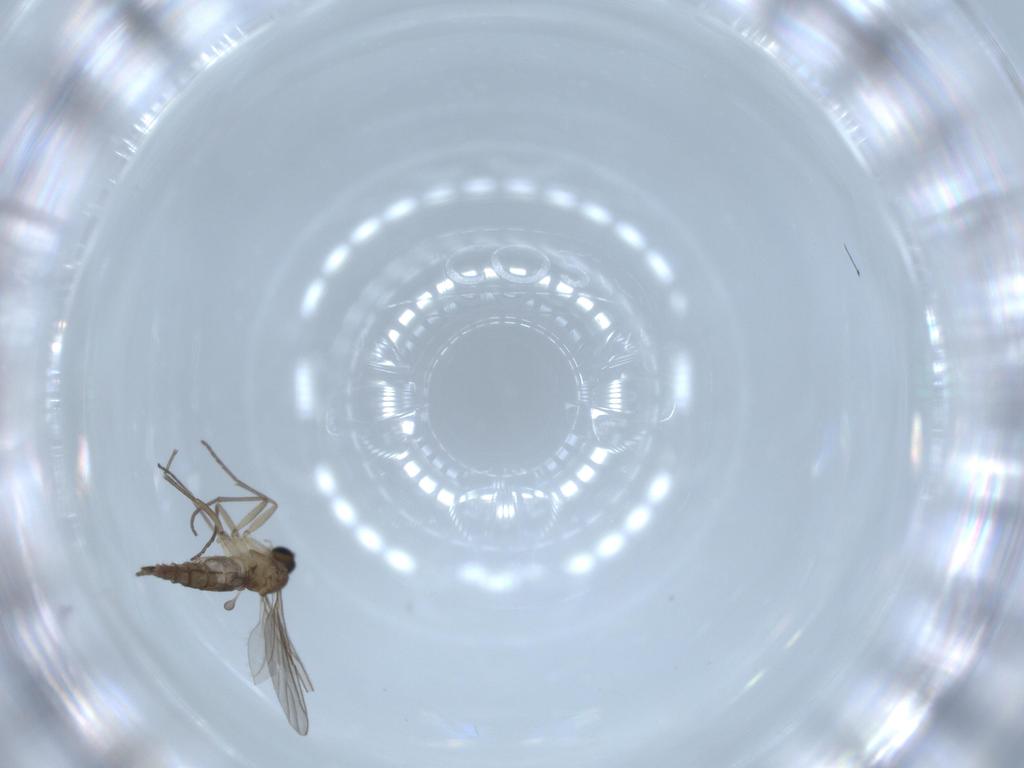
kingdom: Animalia
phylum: Arthropoda
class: Insecta
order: Diptera
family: Sciaridae
